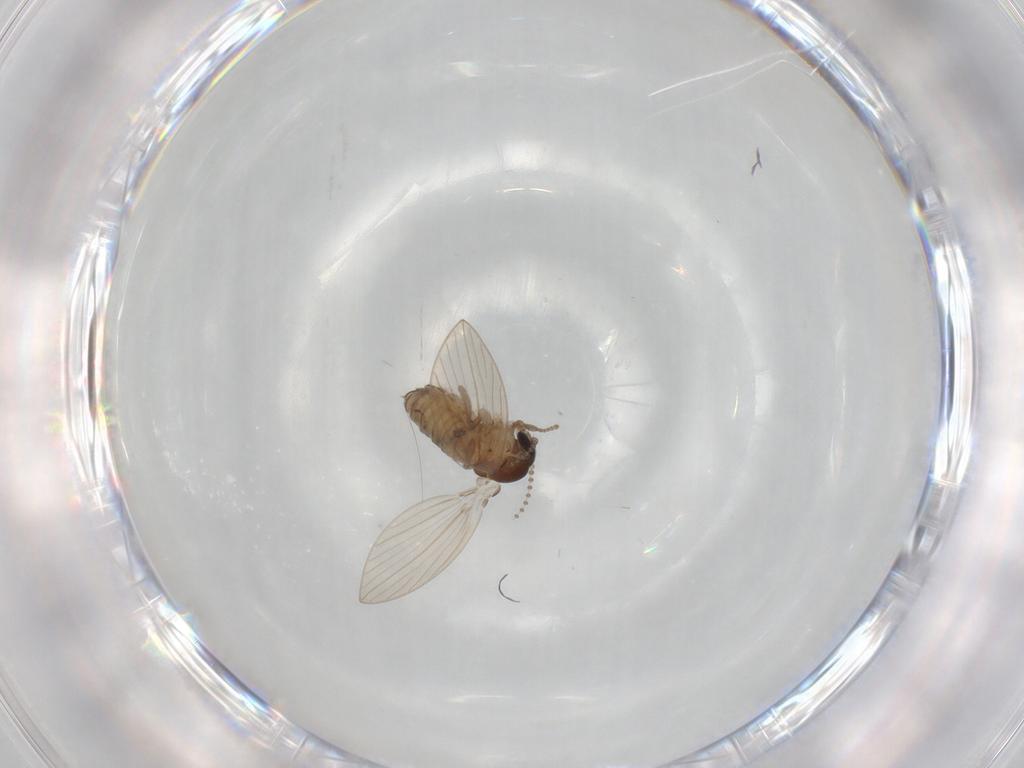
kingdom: Animalia
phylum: Arthropoda
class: Insecta
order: Diptera
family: Psychodidae
